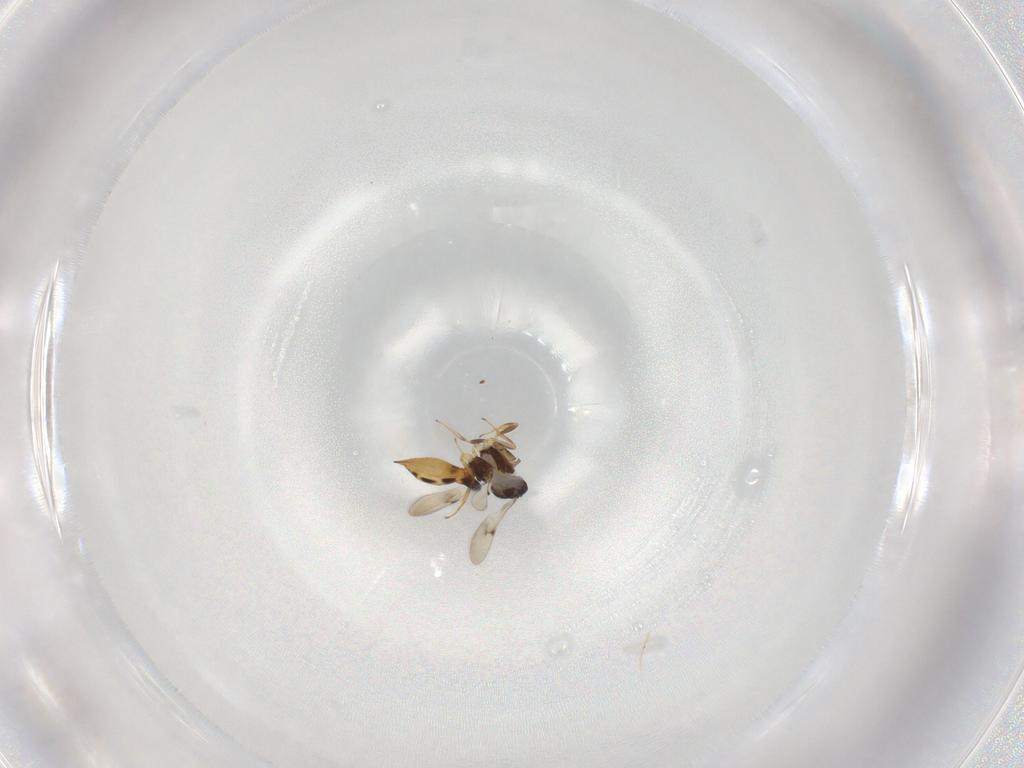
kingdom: Animalia
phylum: Arthropoda
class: Insecta
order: Hymenoptera
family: Scelionidae
